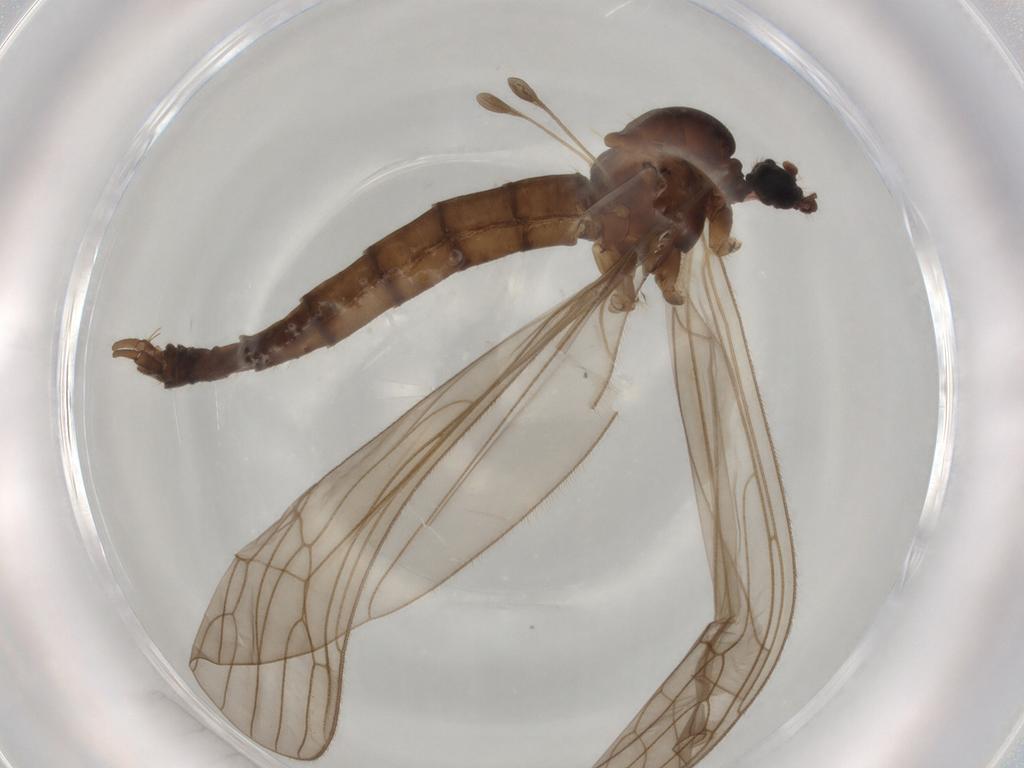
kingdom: Animalia
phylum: Arthropoda
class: Insecta
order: Diptera
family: Trichoceridae
